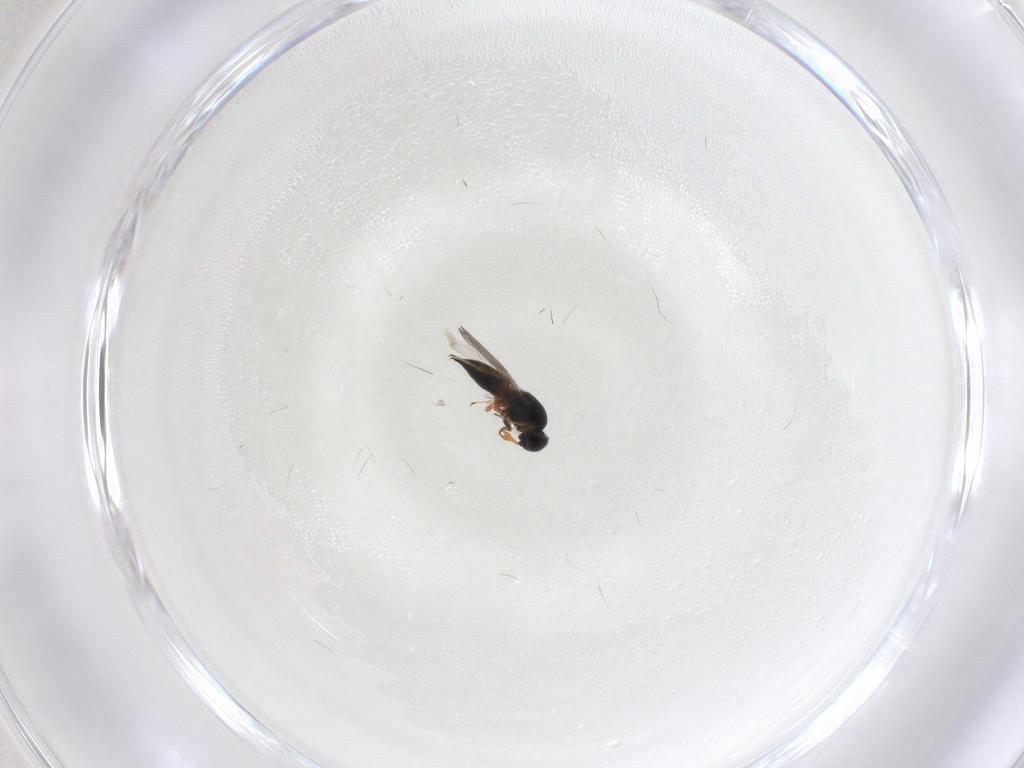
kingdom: Animalia
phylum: Arthropoda
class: Insecta
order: Hymenoptera
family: Platygastridae
